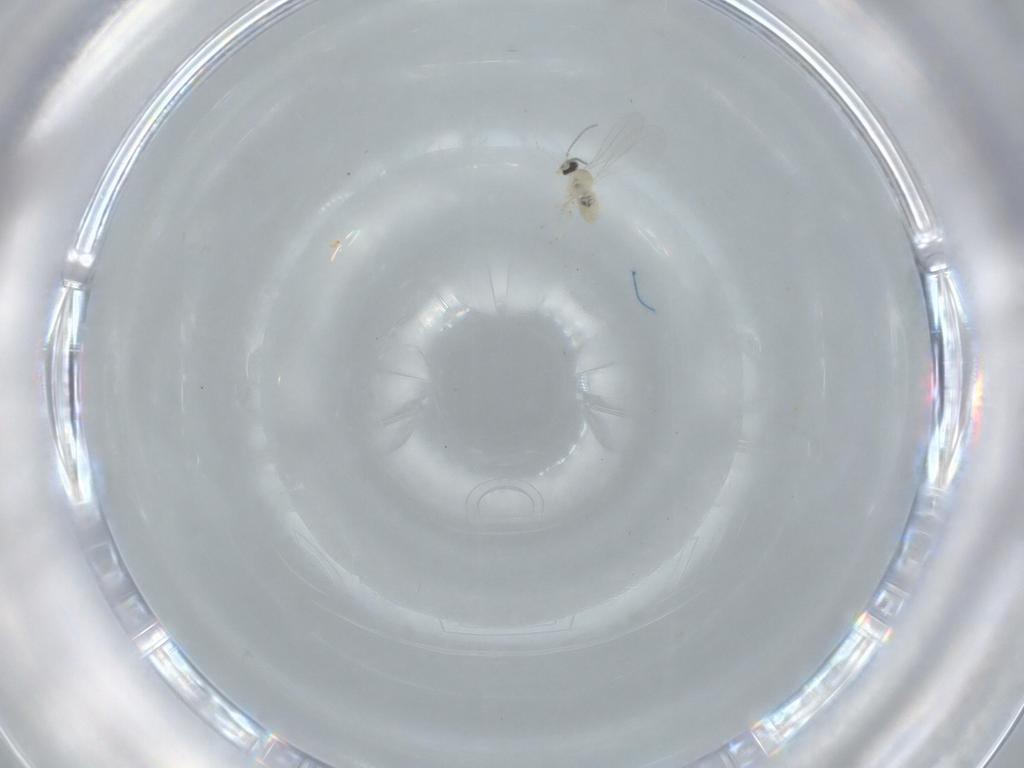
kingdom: Animalia
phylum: Arthropoda
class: Insecta
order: Diptera
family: Cecidomyiidae
